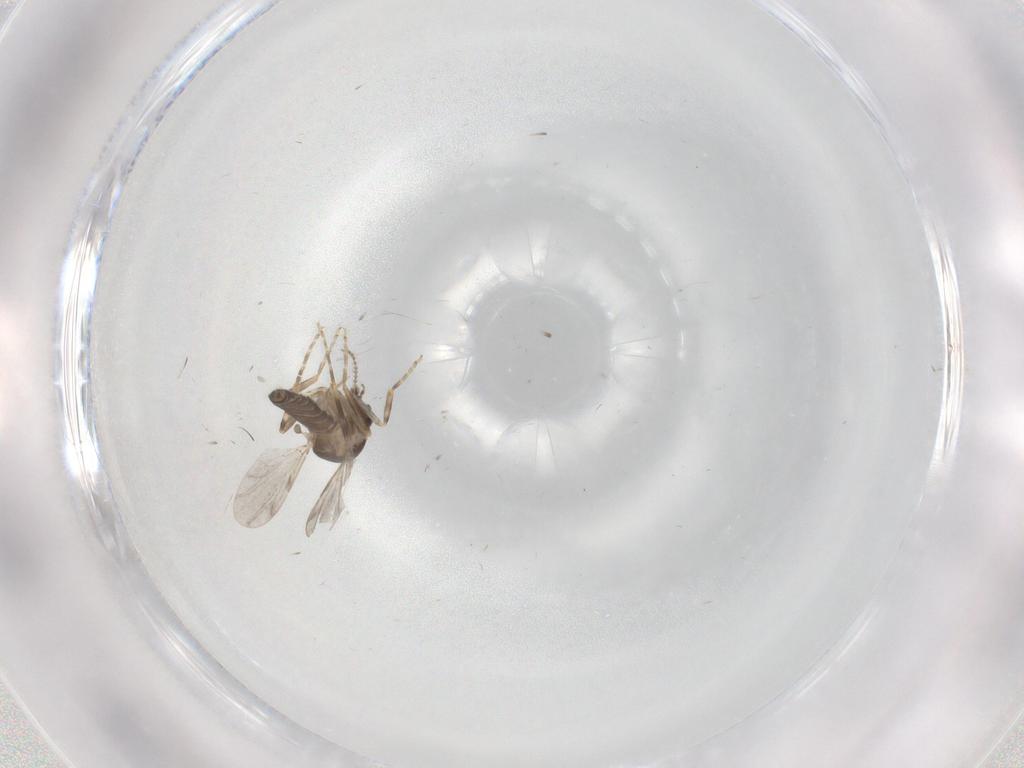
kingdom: Animalia
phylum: Arthropoda
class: Insecta
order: Diptera
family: Ceratopogonidae
